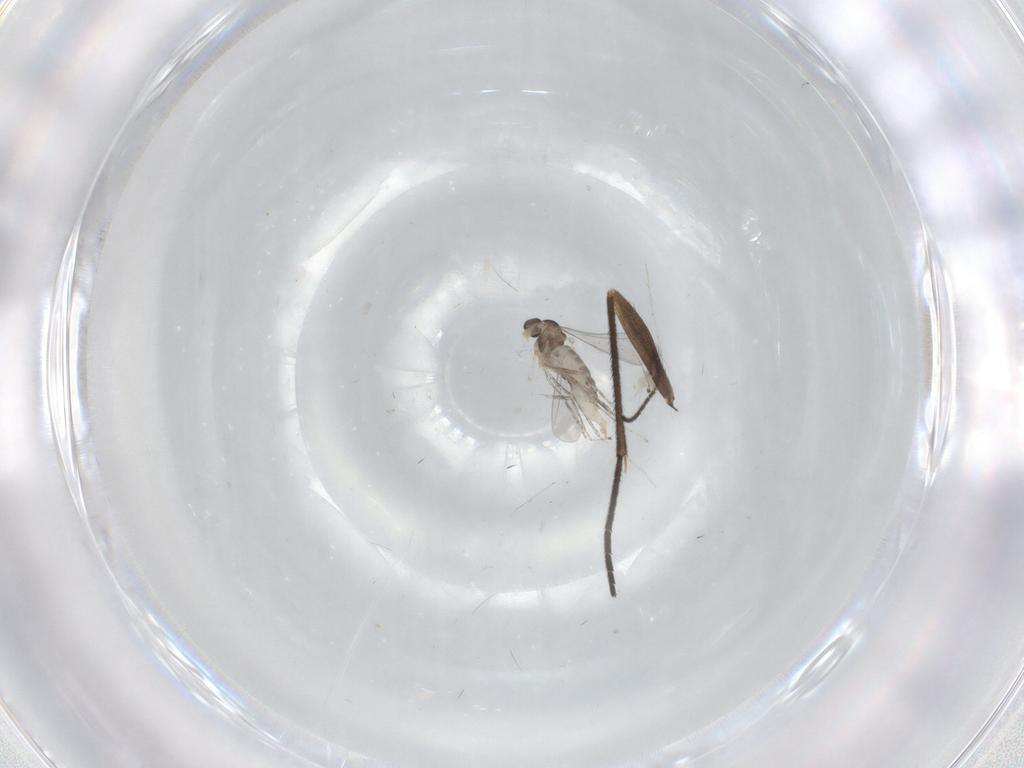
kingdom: Animalia
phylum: Arthropoda
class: Insecta
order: Diptera
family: Sciaridae
